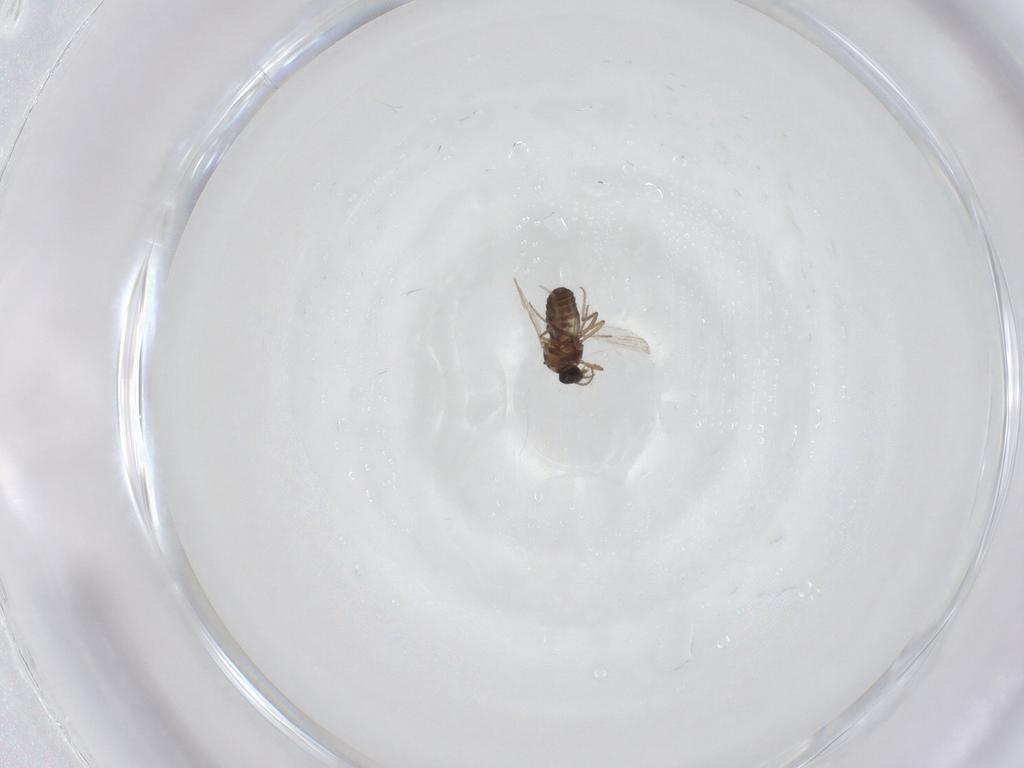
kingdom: Animalia
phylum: Arthropoda
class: Insecta
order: Diptera
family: Ceratopogonidae
